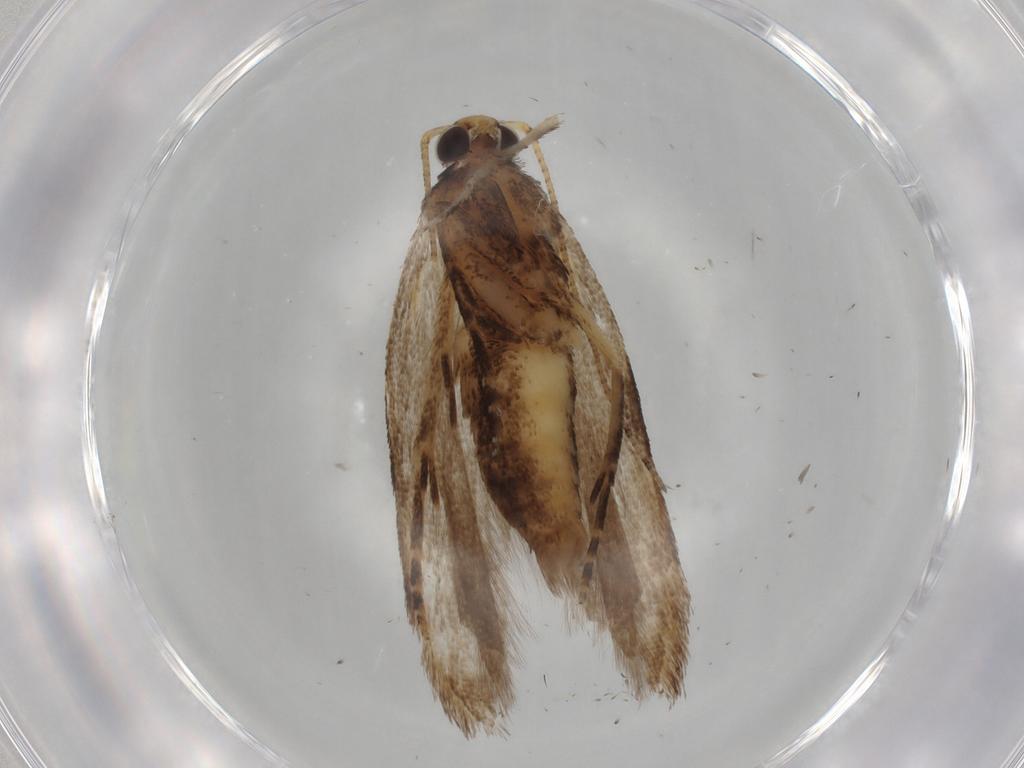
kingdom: Animalia
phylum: Arthropoda
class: Insecta
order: Lepidoptera
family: Gelechiidae
